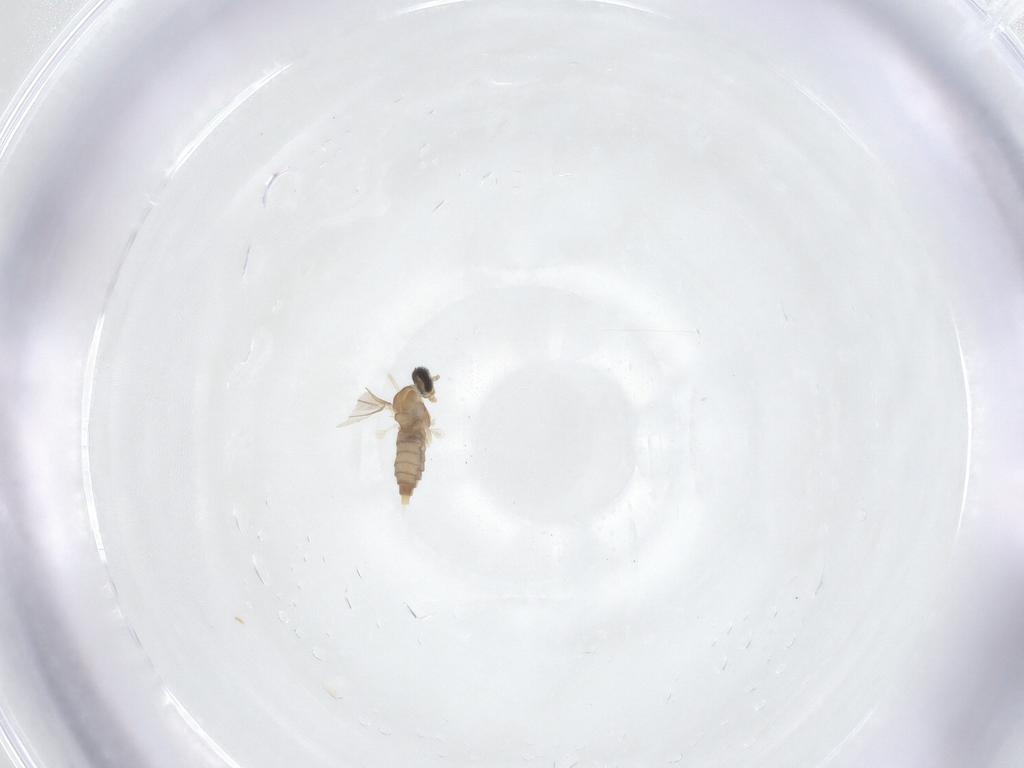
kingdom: Animalia
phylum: Arthropoda
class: Insecta
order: Diptera
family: Cecidomyiidae
